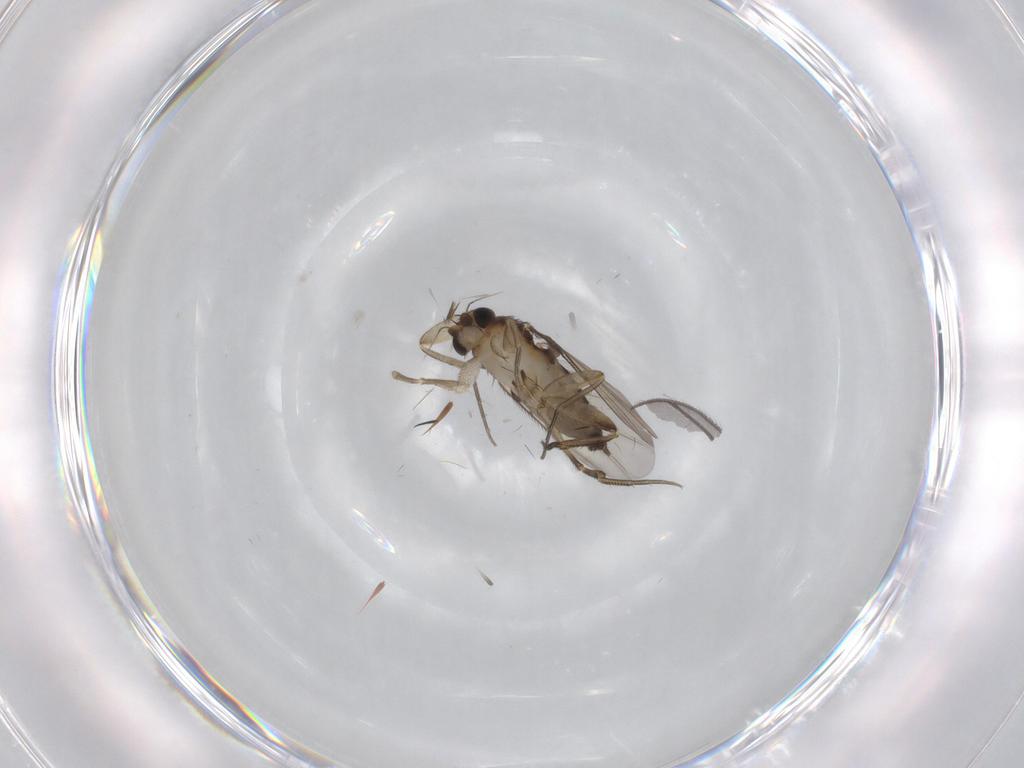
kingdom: Animalia
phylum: Arthropoda
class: Insecta
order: Diptera
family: Phoridae
